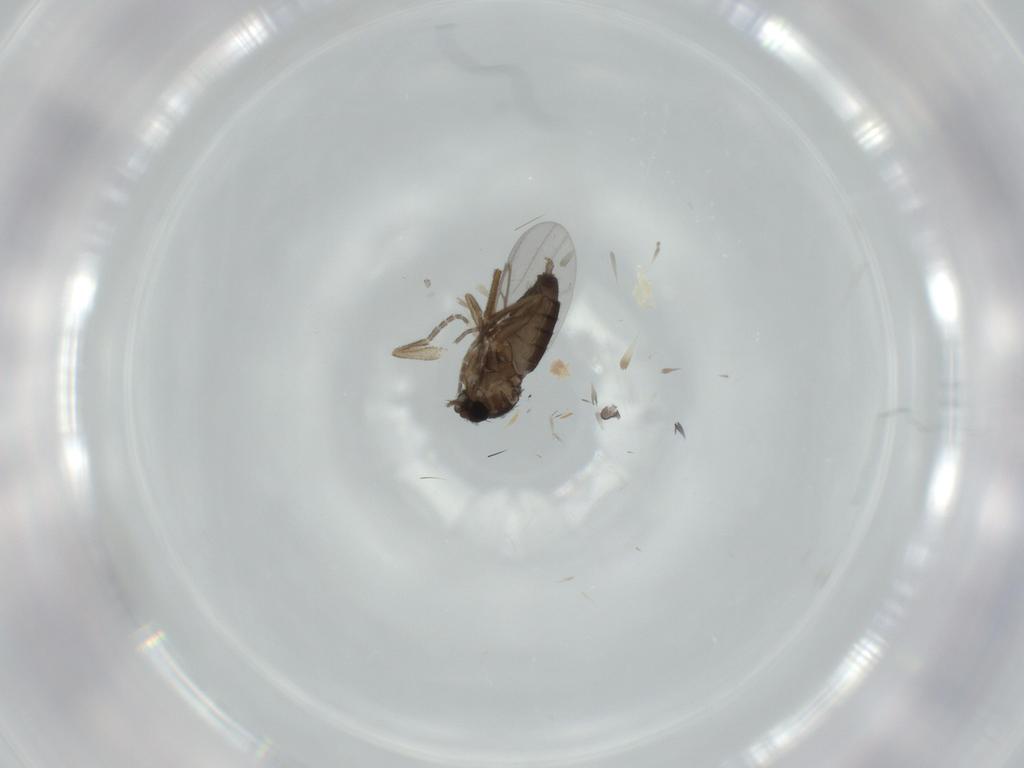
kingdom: Animalia
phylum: Arthropoda
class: Insecta
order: Diptera
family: Phoridae
